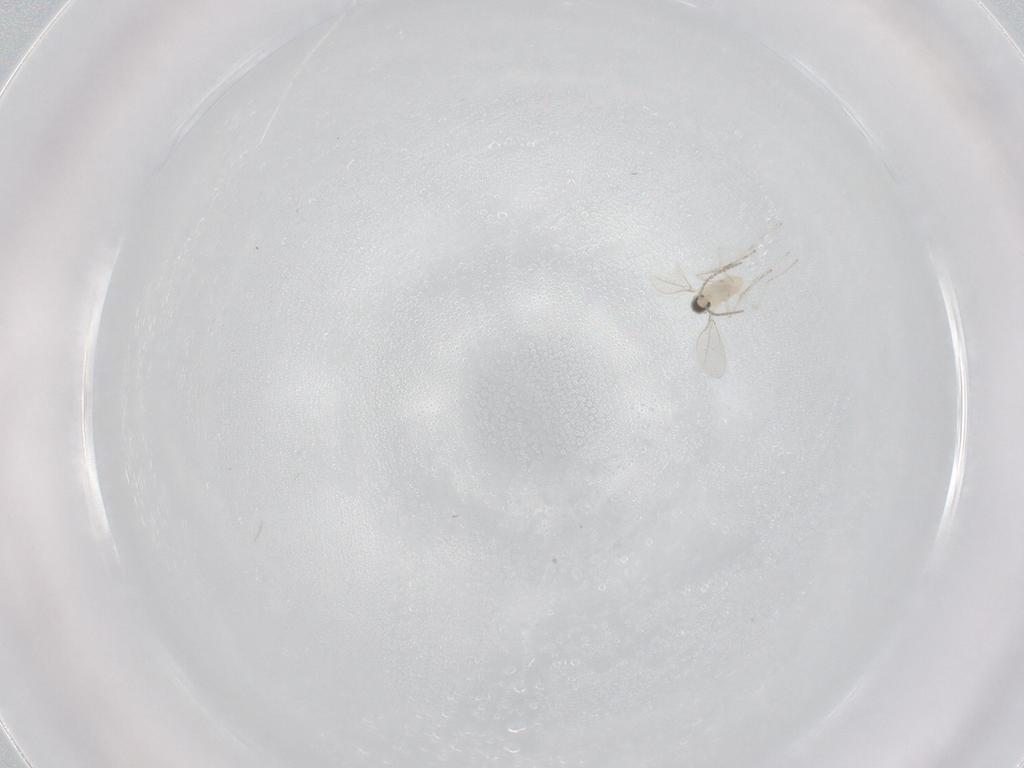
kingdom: Animalia
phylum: Arthropoda
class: Insecta
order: Diptera
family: Cecidomyiidae
